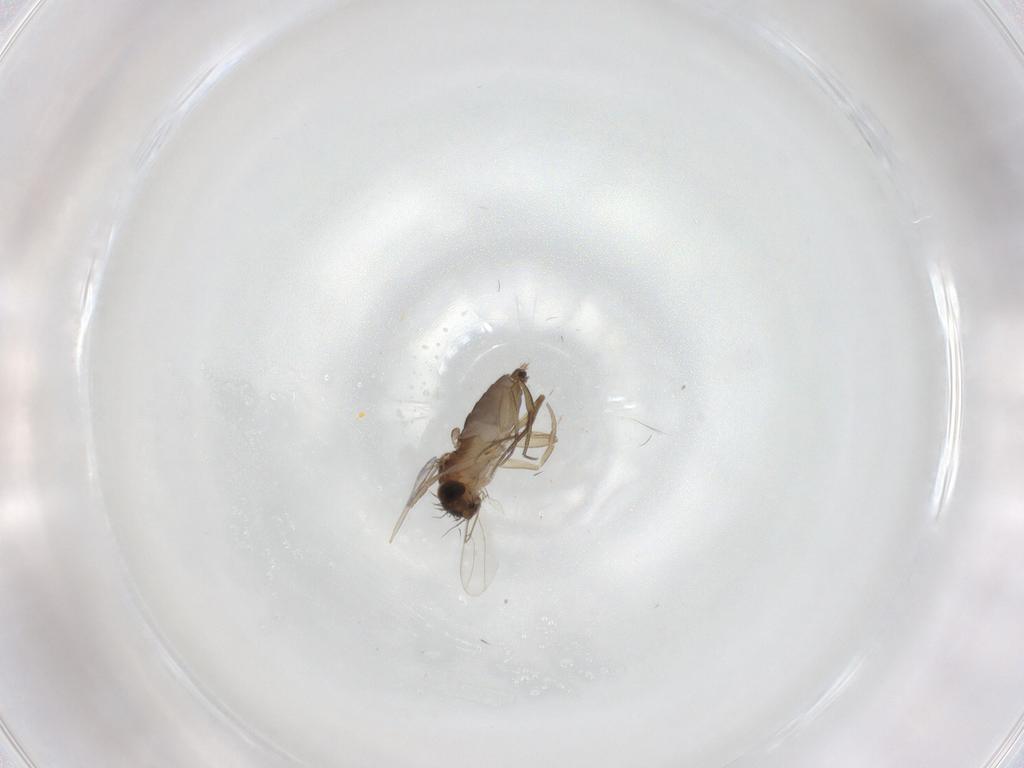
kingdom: Animalia
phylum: Arthropoda
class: Insecta
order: Diptera
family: Phoridae
